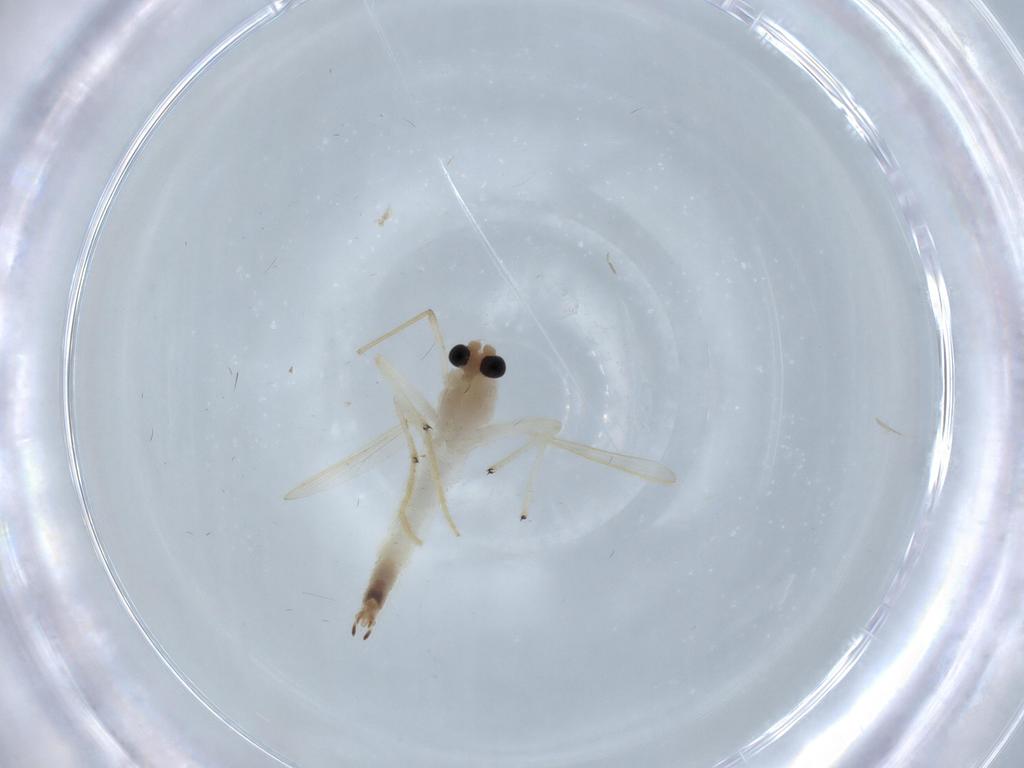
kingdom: Animalia
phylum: Arthropoda
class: Insecta
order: Diptera
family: Chironomidae
